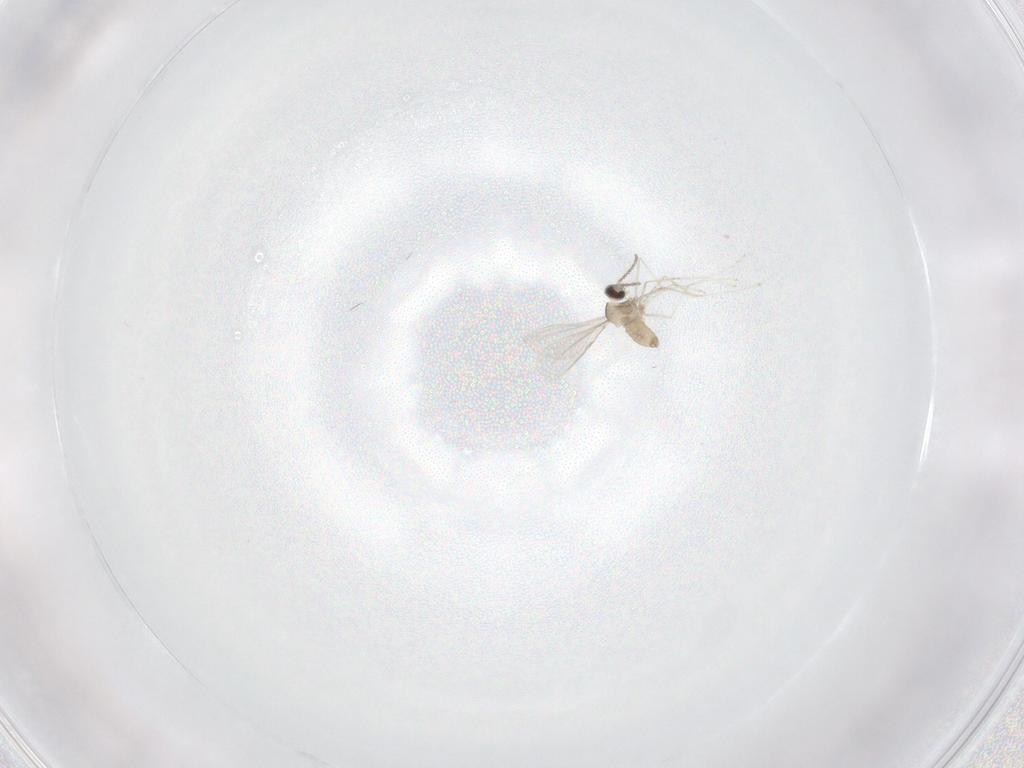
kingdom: Animalia
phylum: Arthropoda
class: Insecta
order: Diptera
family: Cecidomyiidae
